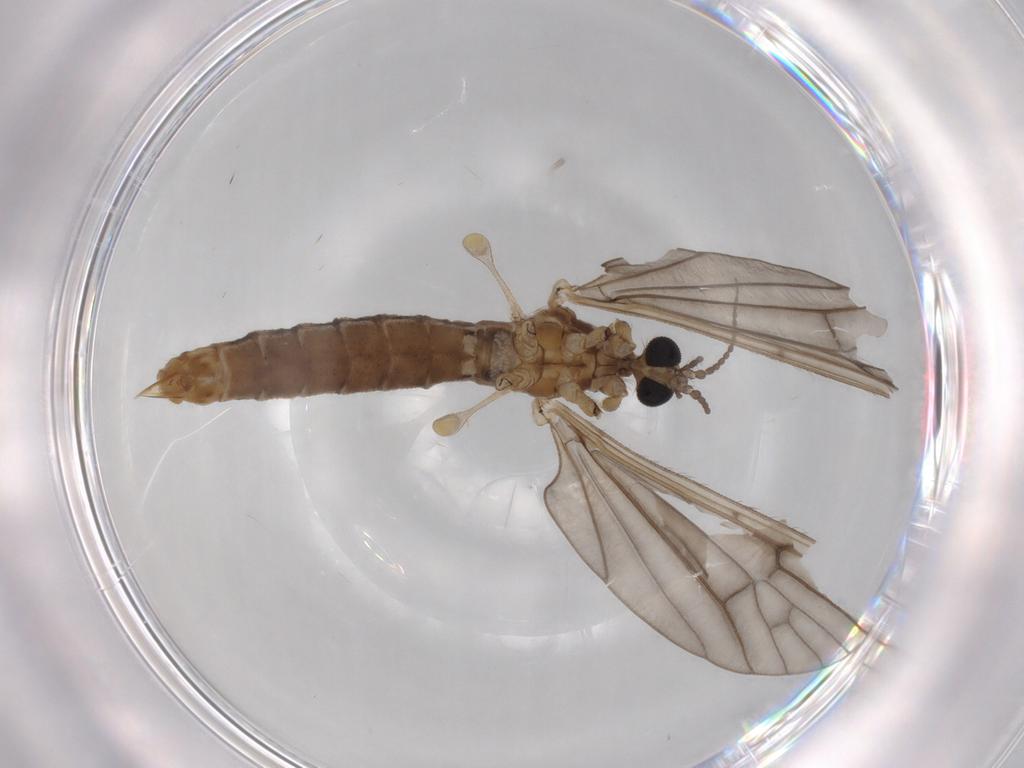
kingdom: Animalia
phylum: Arthropoda
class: Insecta
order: Diptera
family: Limoniidae
